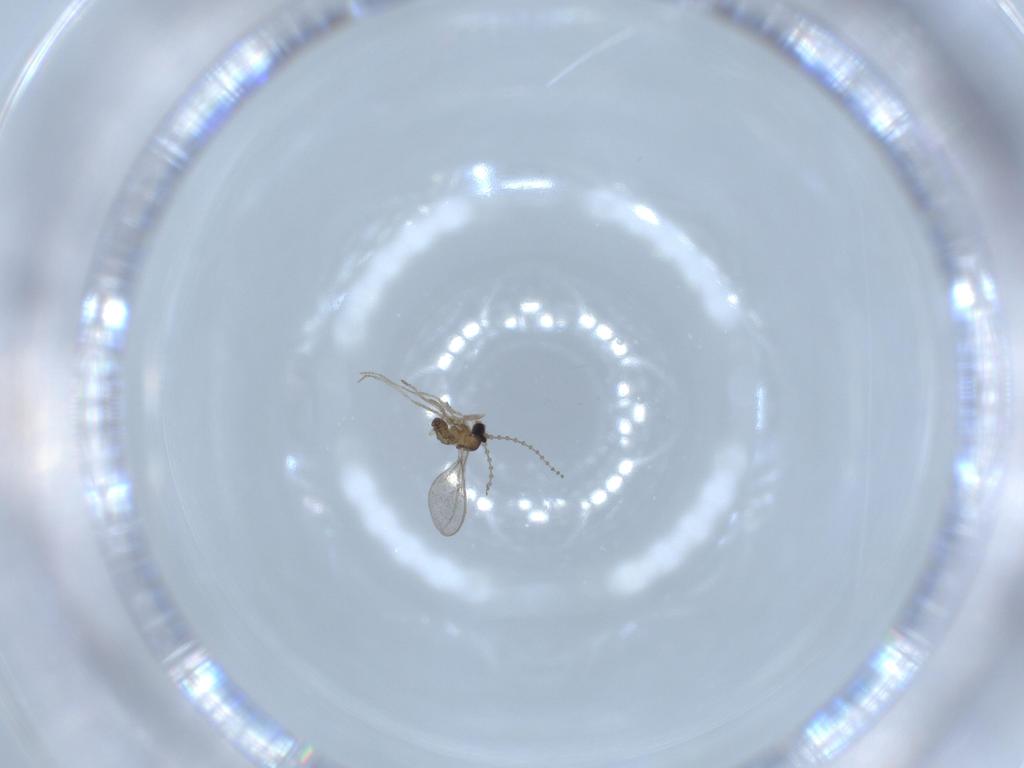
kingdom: Animalia
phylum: Arthropoda
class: Insecta
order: Diptera
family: Cecidomyiidae
